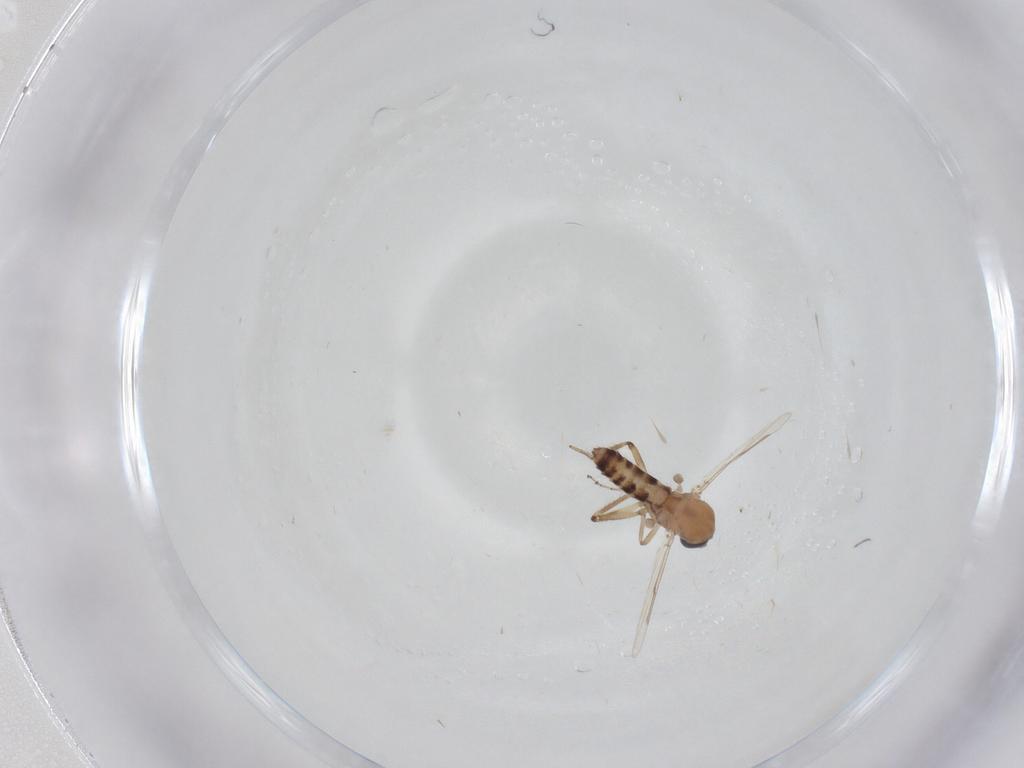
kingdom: Animalia
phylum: Arthropoda
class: Insecta
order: Diptera
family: Ceratopogonidae
